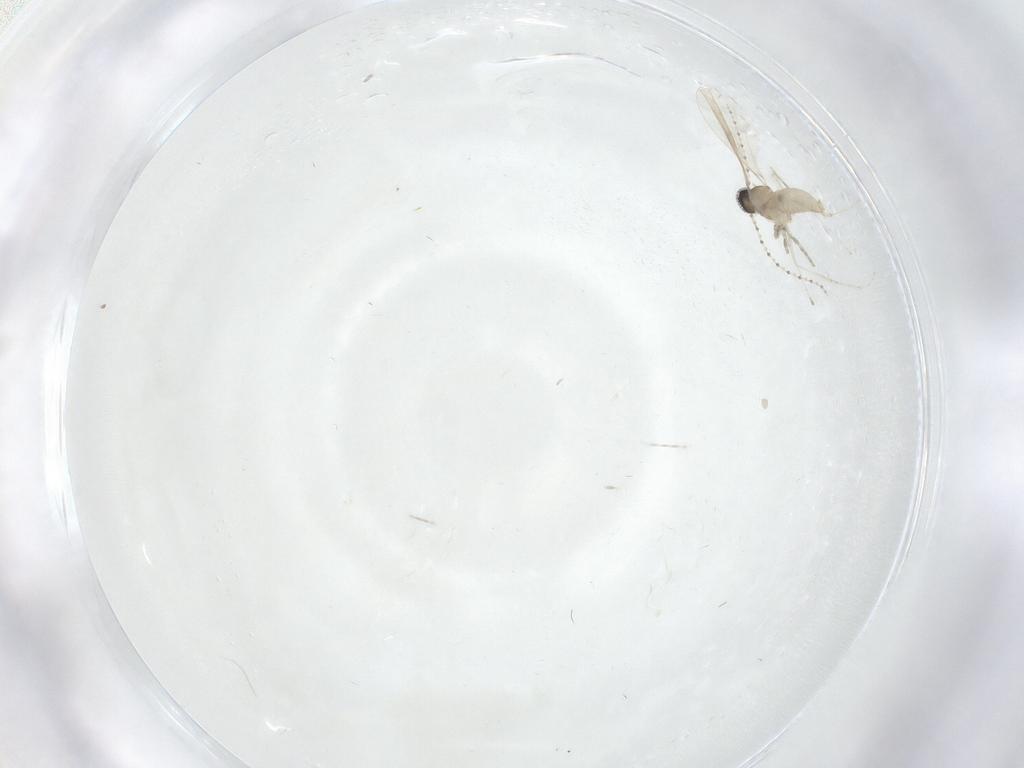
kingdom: Animalia
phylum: Arthropoda
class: Insecta
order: Diptera
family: Cecidomyiidae
